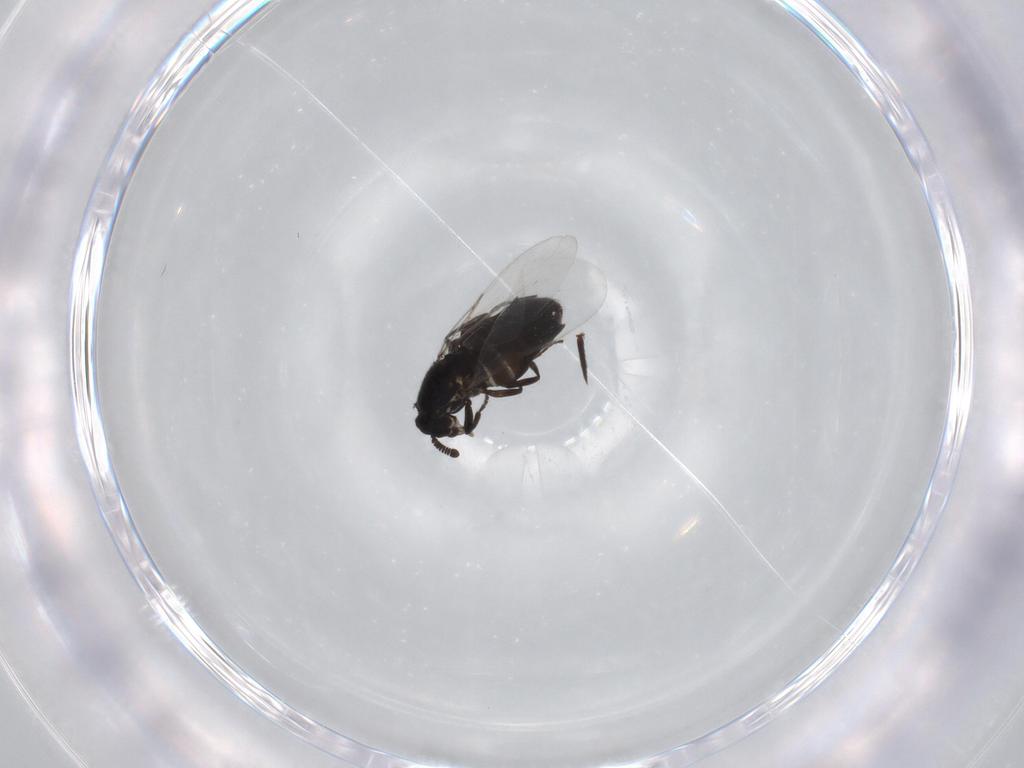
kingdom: Animalia
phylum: Arthropoda
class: Insecta
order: Diptera
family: Scatopsidae
